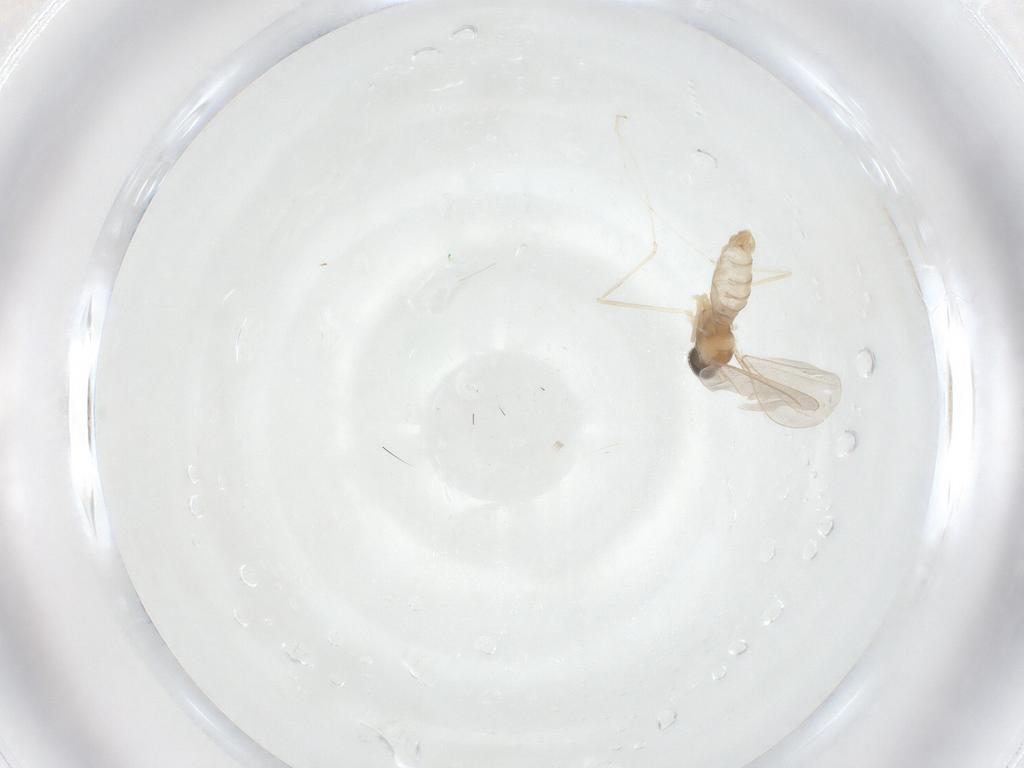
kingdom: Animalia
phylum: Arthropoda
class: Insecta
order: Diptera
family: Cecidomyiidae
